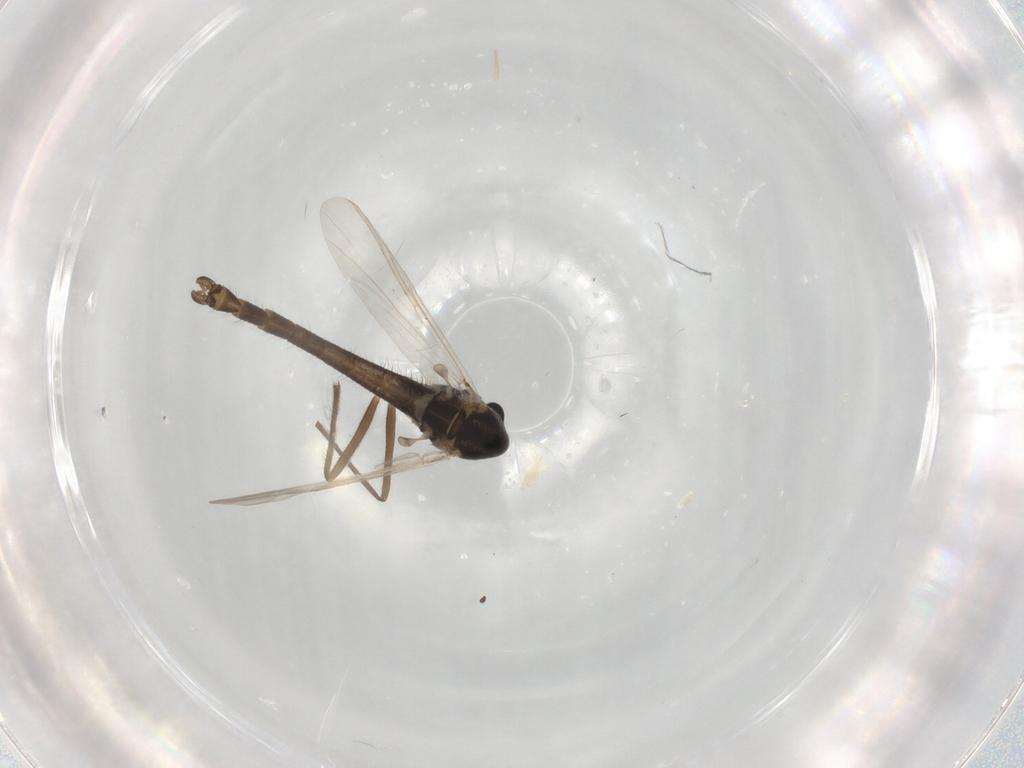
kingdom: Animalia
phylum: Arthropoda
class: Insecta
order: Diptera
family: Chironomidae
